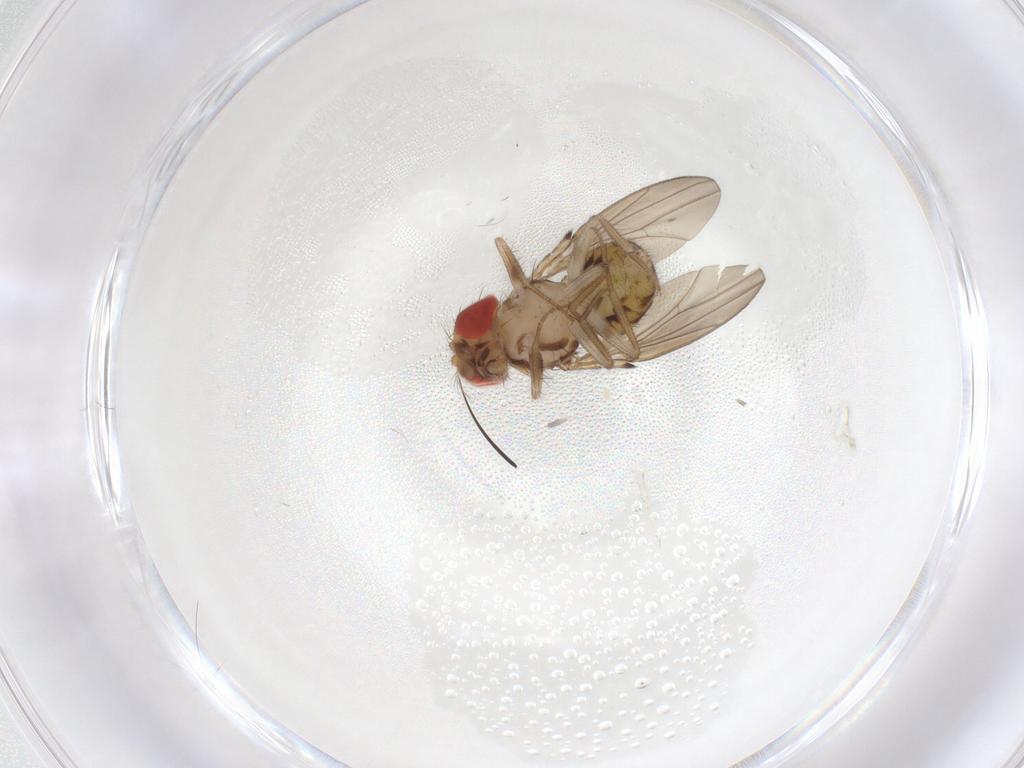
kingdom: Animalia
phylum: Arthropoda
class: Insecta
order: Diptera
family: Drosophilidae
